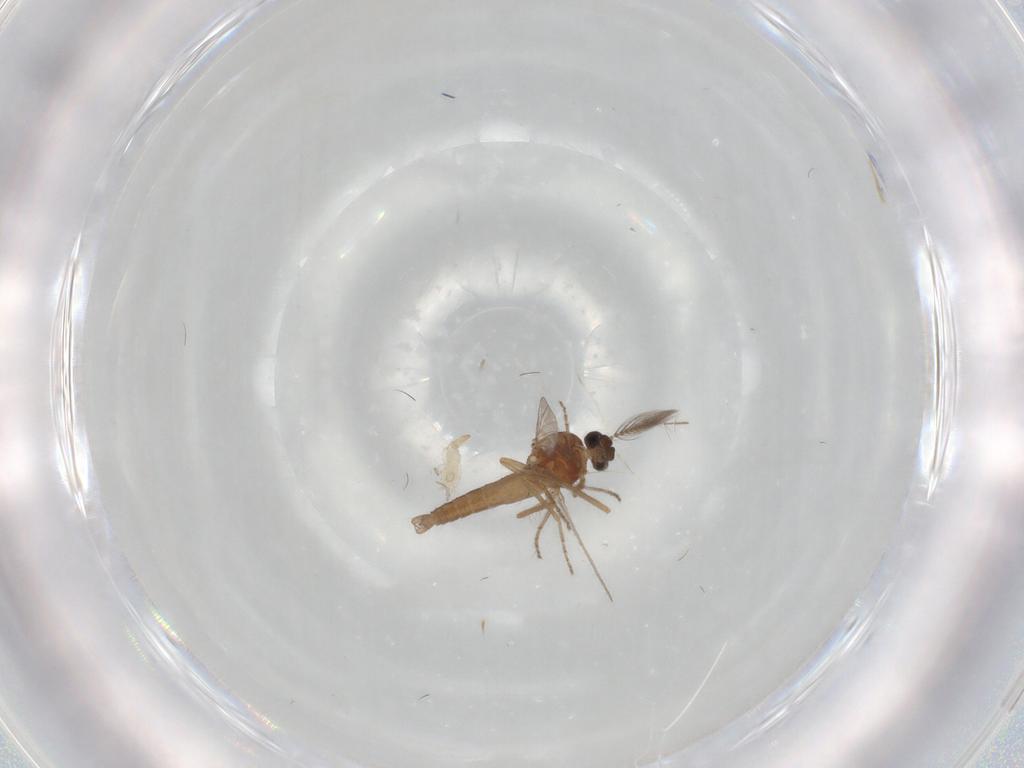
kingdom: Animalia
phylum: Arthropoda
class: Insecta
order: Diptera
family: Cecidomyiidae
